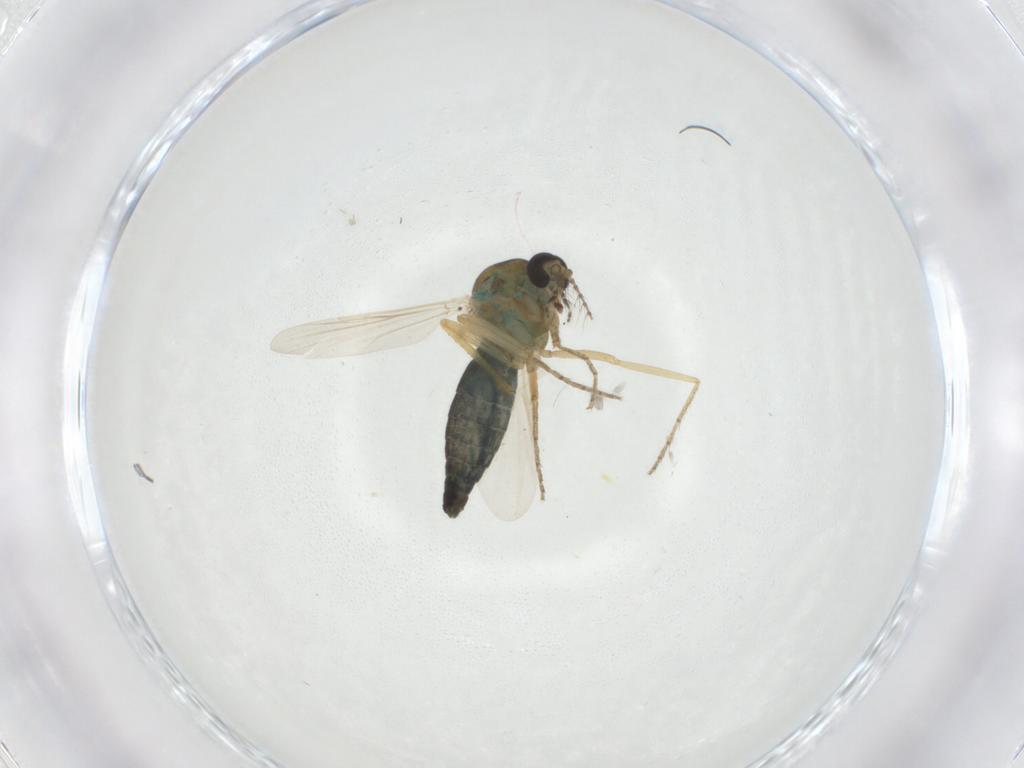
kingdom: Animalia
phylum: Arthropoda
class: Insecta
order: Diptera
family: Ceratopogonidae
